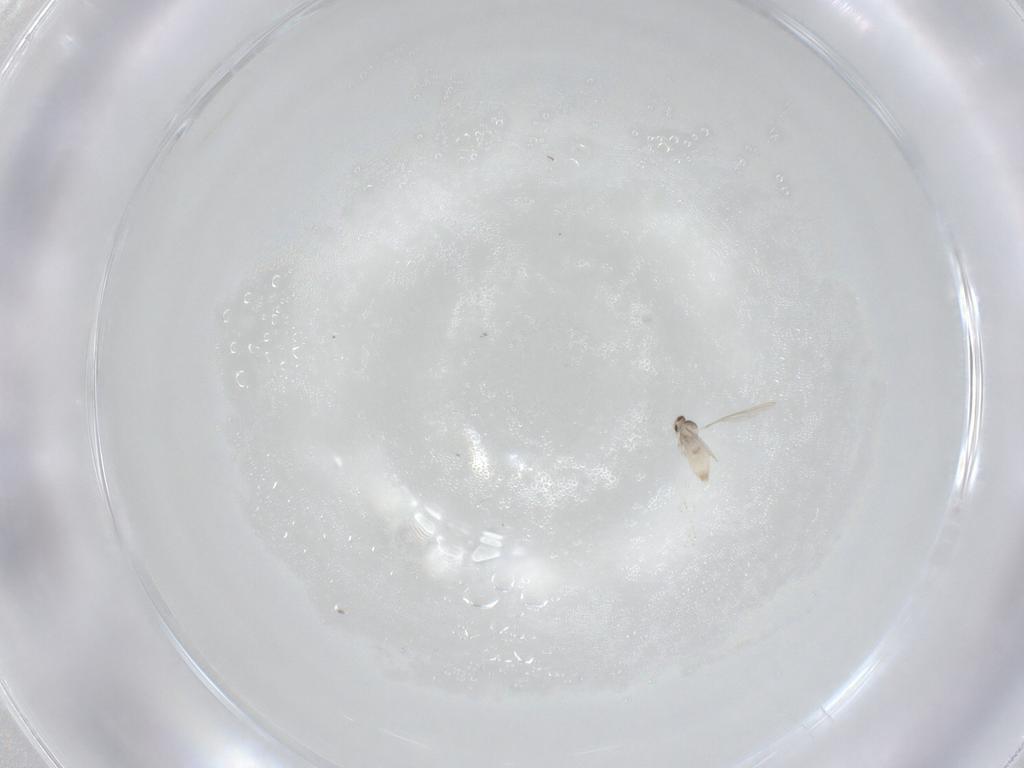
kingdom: Animalia
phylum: Arthropoda
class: Insecta
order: Diptera
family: Cecidomyiidae
